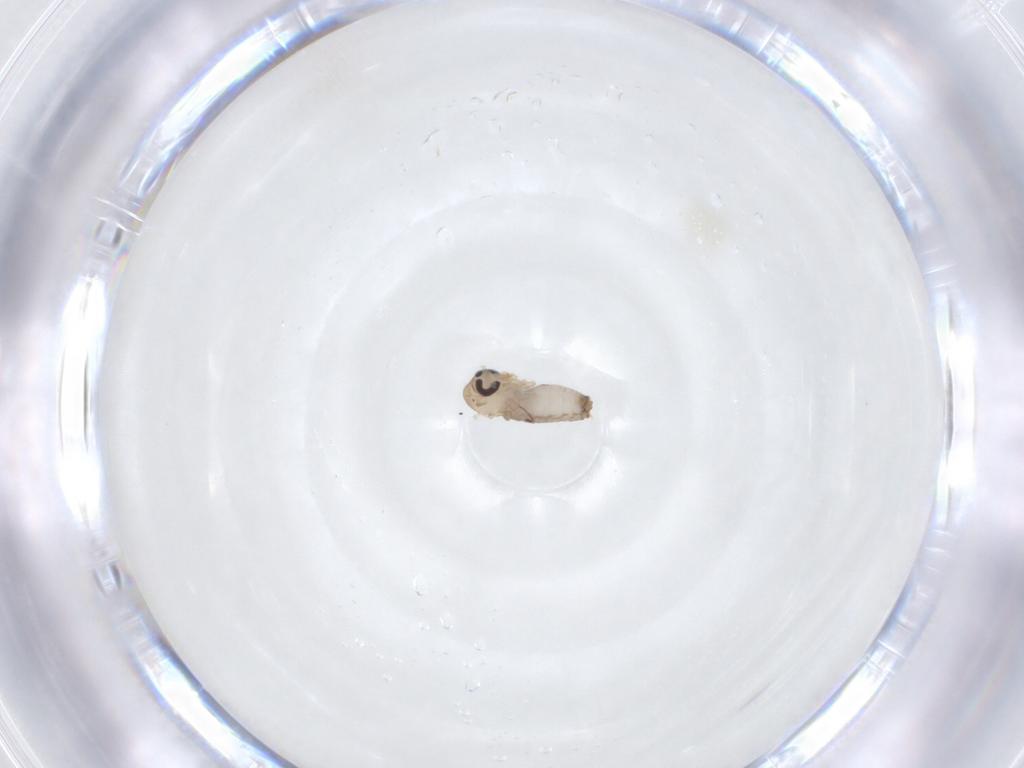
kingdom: Animalia
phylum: Arthropoda
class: Insecta
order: Diptera
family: Psychodidae
